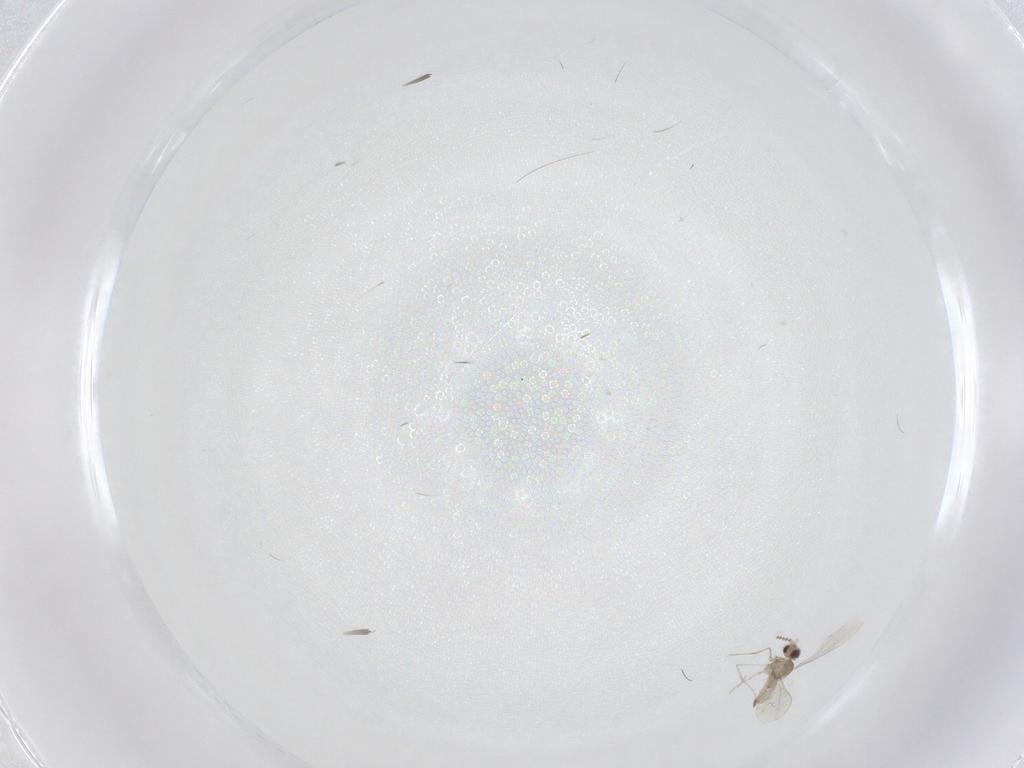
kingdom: Animalia
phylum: Arthropoda
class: Insecta
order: Diptera
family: Cecidomyiidae
